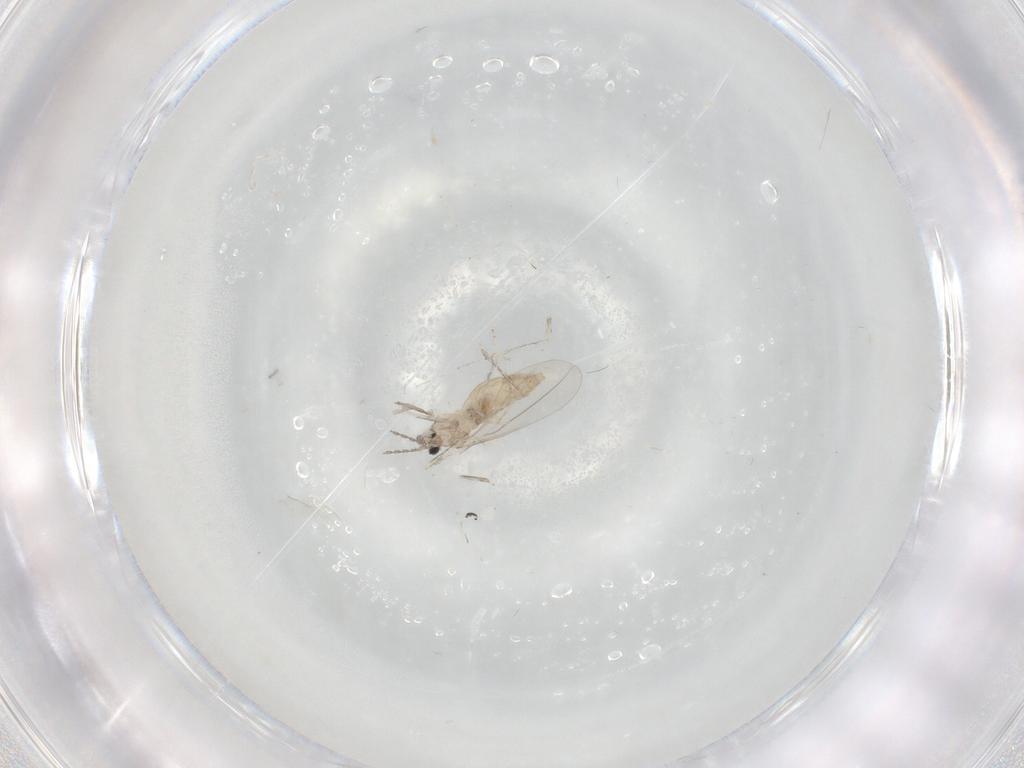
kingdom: Animalia
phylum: Arthropoda
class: Insecta
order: Diptera
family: Cecidomyiidae
